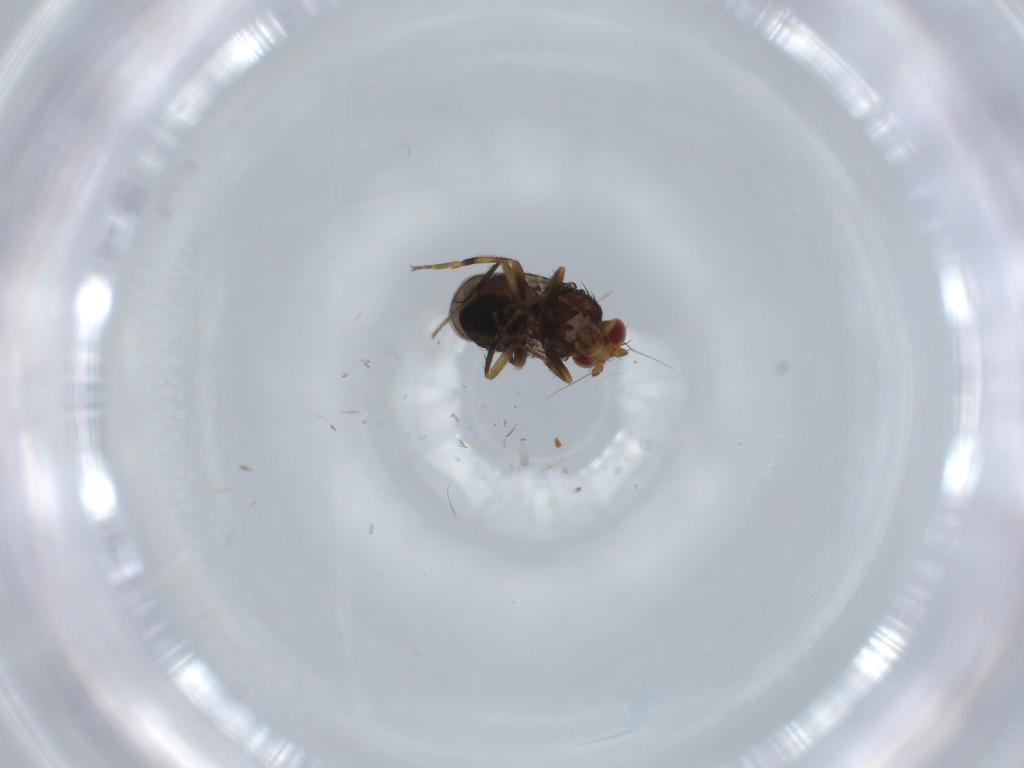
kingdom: Animalia
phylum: Arthropoda
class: Insecta
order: Diptera
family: Sphaeroceridae
